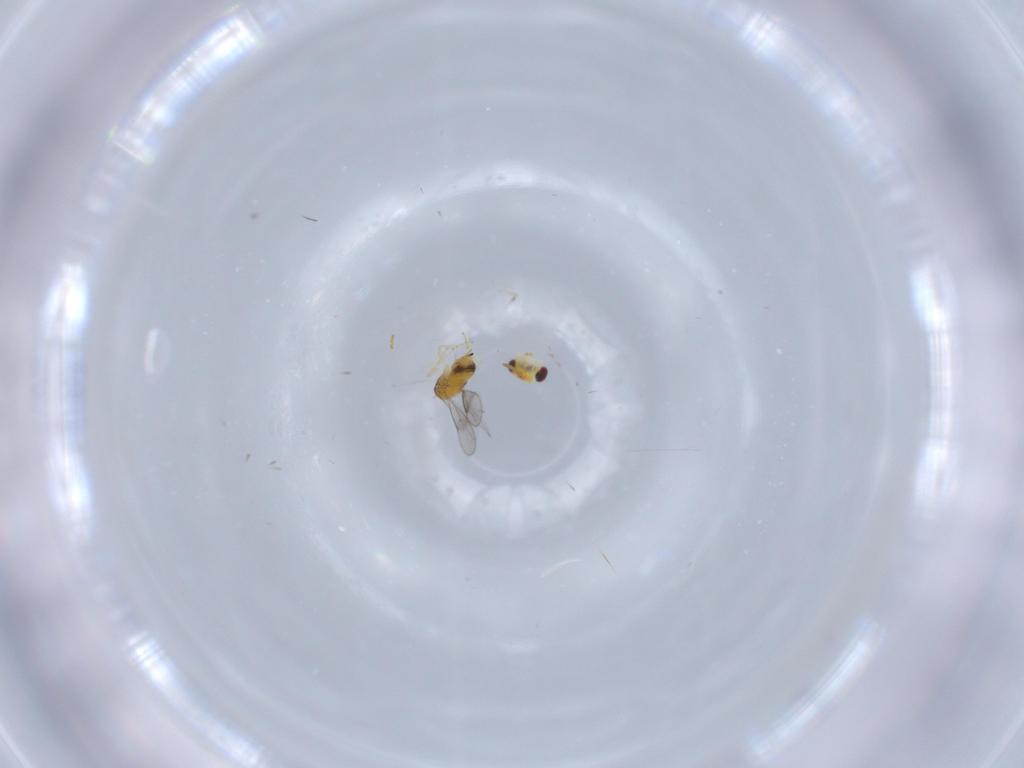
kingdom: Animalia
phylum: Arthropoda
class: Insecta
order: Hymenoptera
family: Aphelinidae
